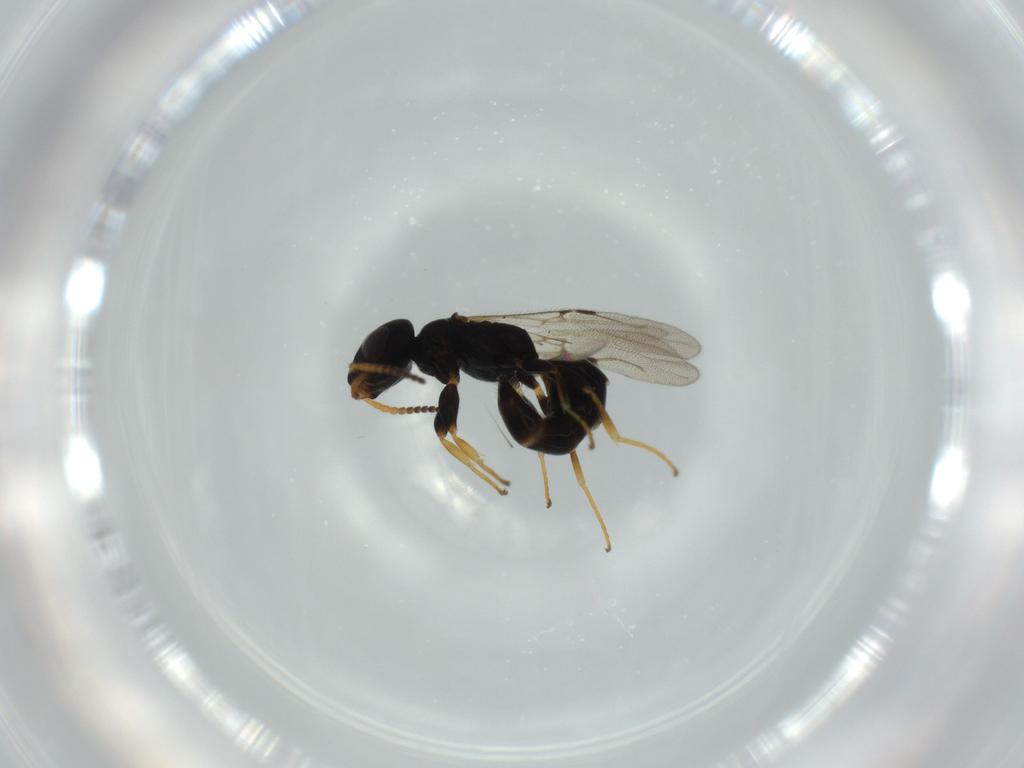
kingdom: Animalia
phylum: Arthropoda
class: Insecta
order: Hymenoptera
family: Bethylidae
